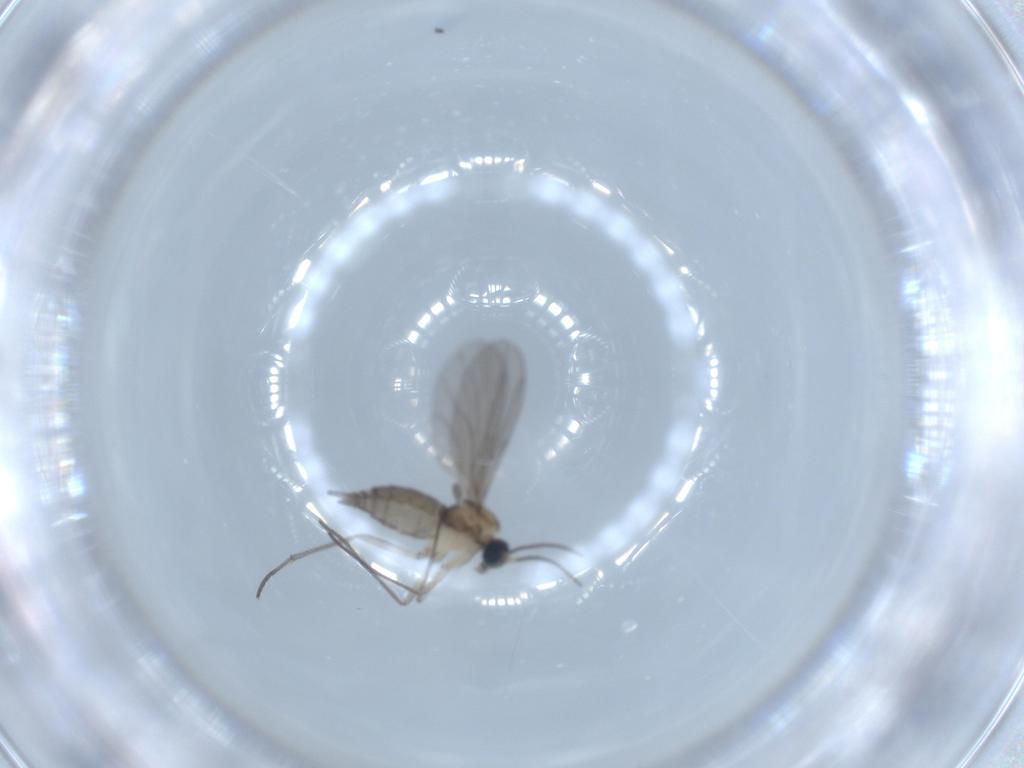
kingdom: Animalia
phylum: Arthropoda
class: Insecta
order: Diptera
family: Sciaridae
